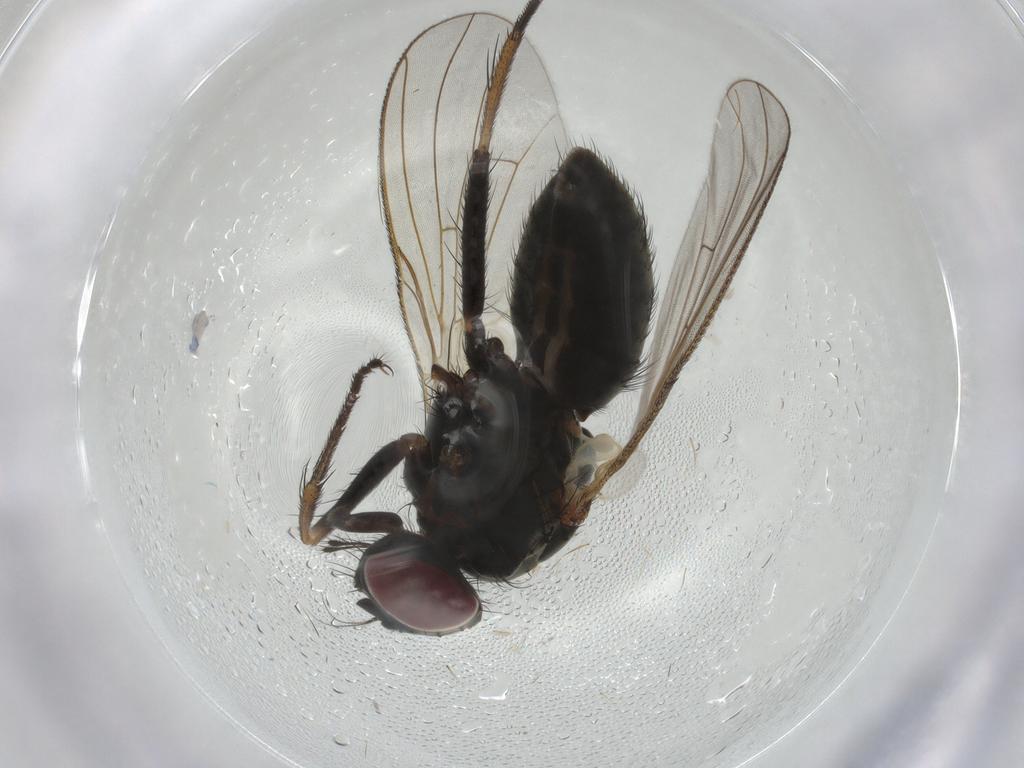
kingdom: Animalia
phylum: Arthropoda
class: Insecta
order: Diptera
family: Muscidae
